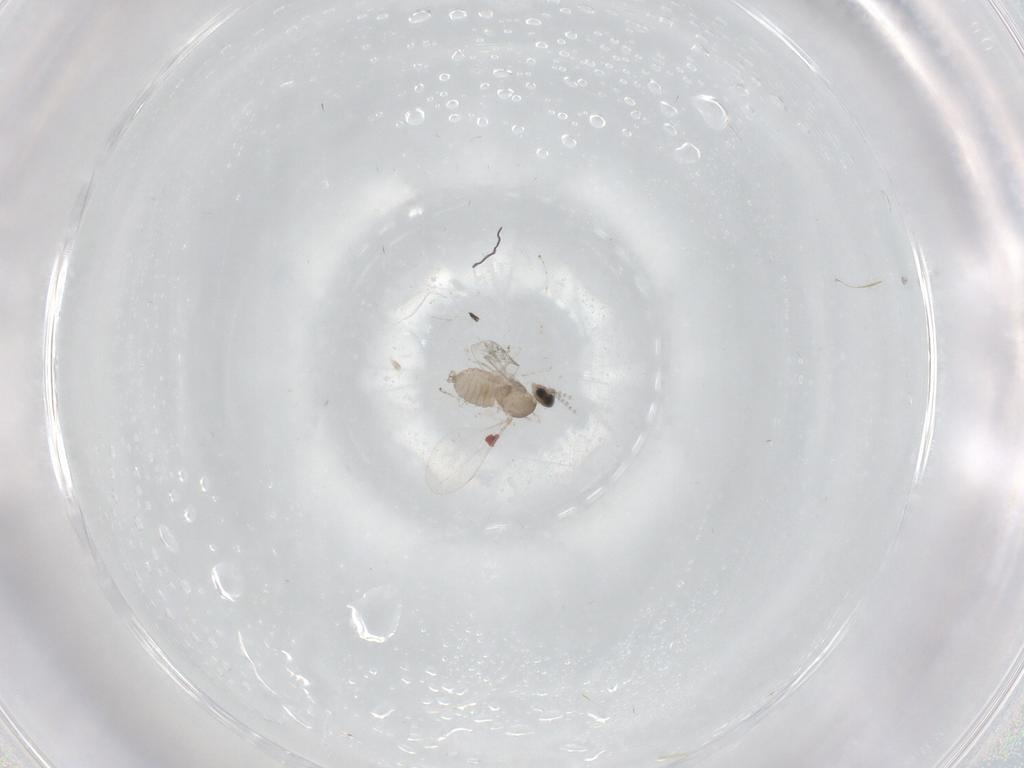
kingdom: Animalia
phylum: Arthropoda
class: Insecta
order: Diptera
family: Cecidomyiidae
